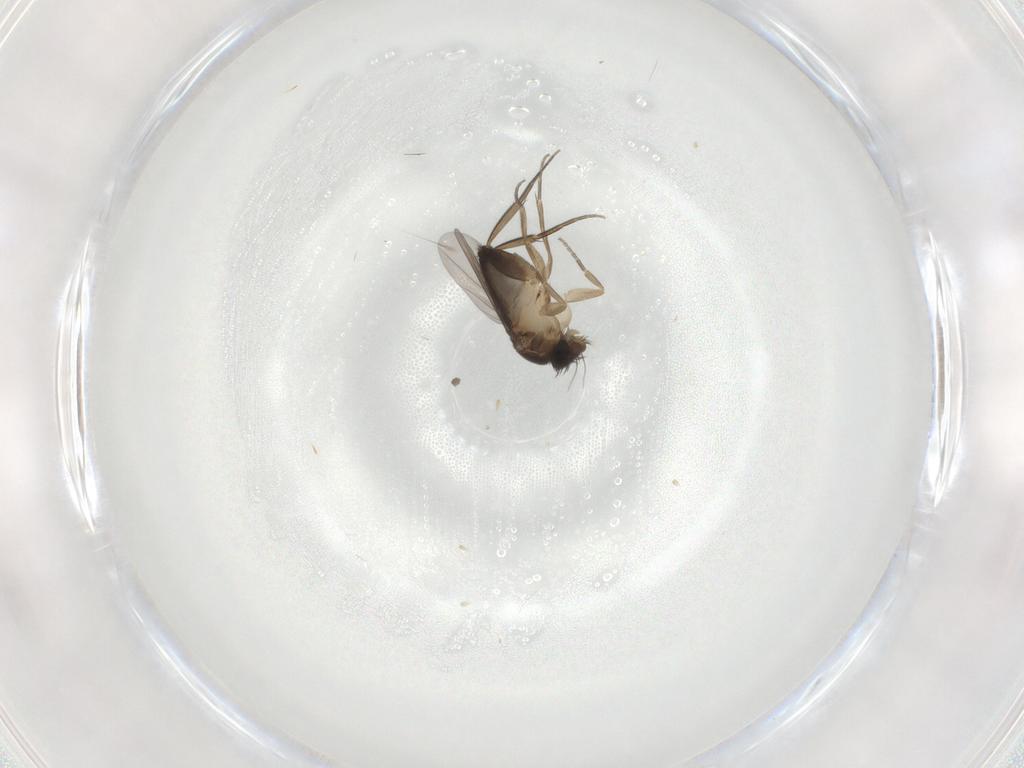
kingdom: Animalia
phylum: Arthropoda
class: Insecta
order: Diptera
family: Phoridae
